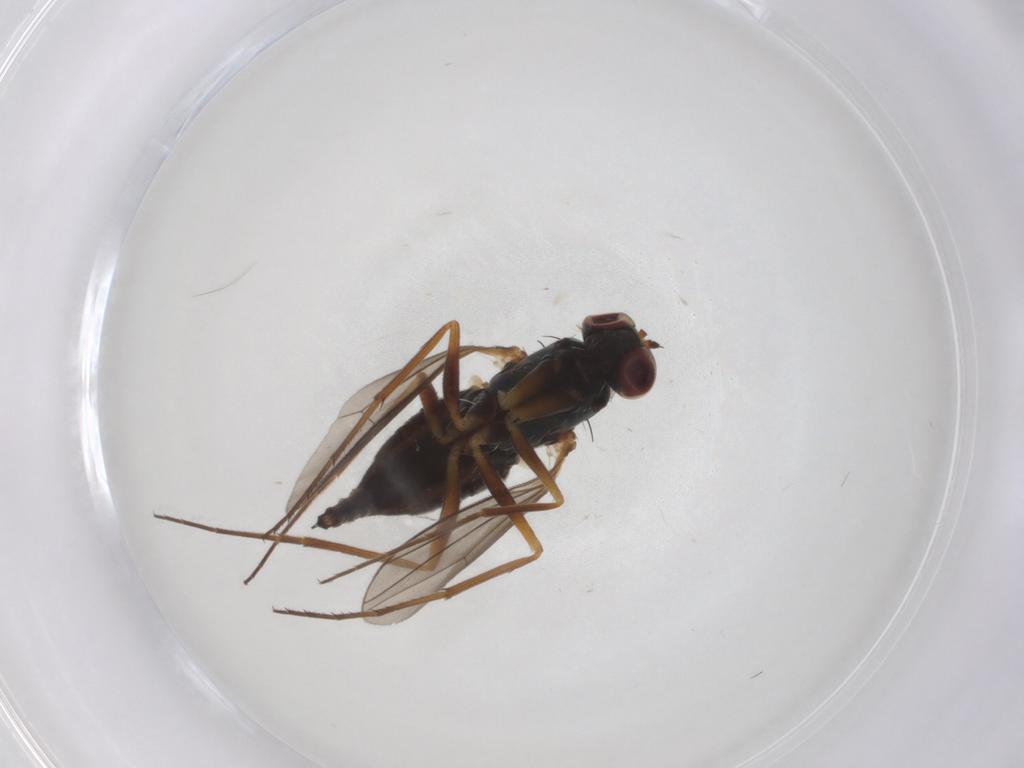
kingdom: Animalia
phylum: Arthropoda
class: Insecta
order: Diptera
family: Dolichopodidae
